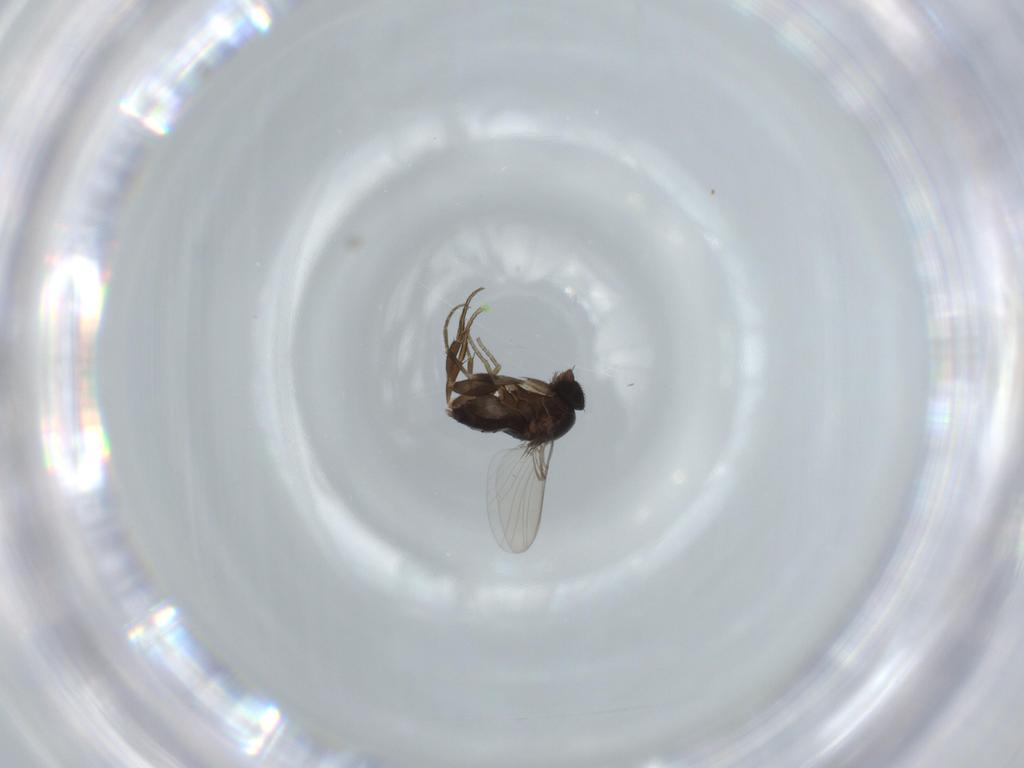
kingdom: Animalia
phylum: Arthropoda
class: Insecta
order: Diptera
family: Phoridae
